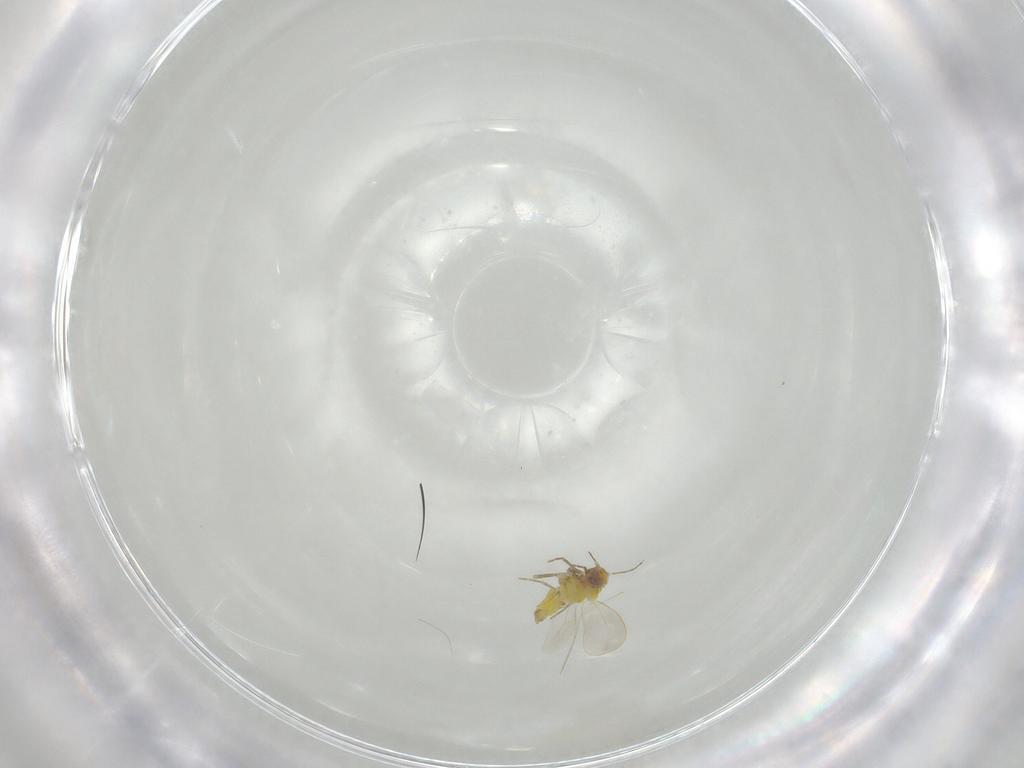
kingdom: Animalia
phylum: Arthropoda
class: Insecta
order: Hemiptera
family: Aleyrodidae
